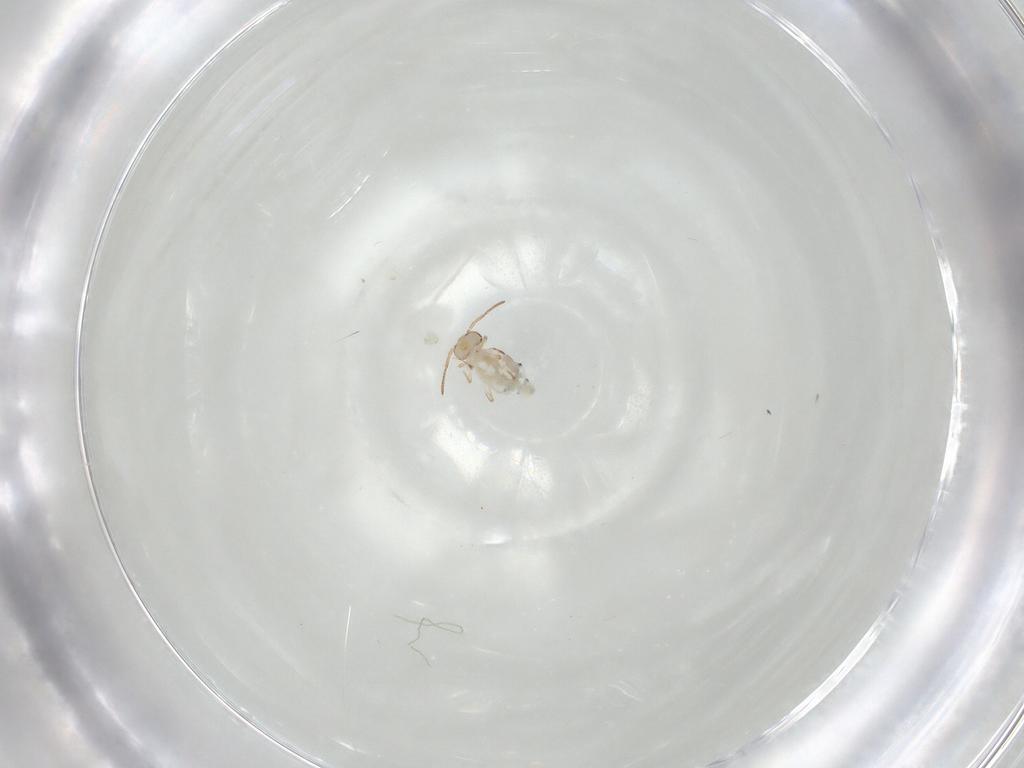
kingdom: Animalia
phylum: Arthropoda
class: Collembola
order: Symphypleona
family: Bourletiellidae
